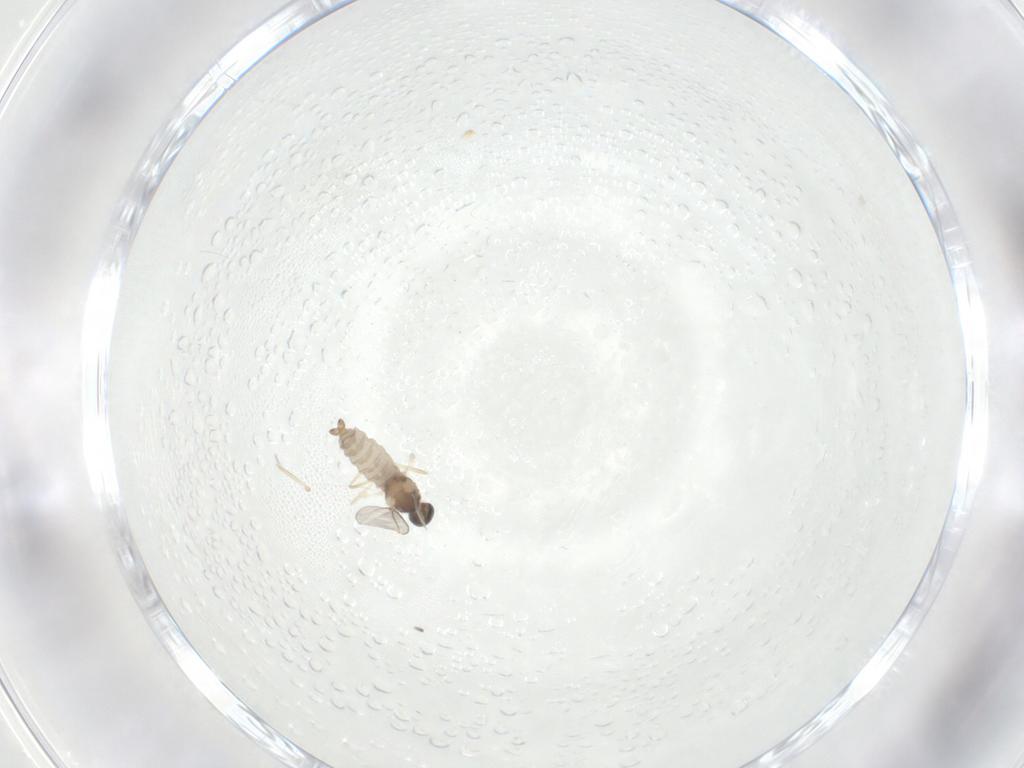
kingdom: Animalia
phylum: Arthropoda
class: Insecta
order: Diptera
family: Cecidomyiidae
